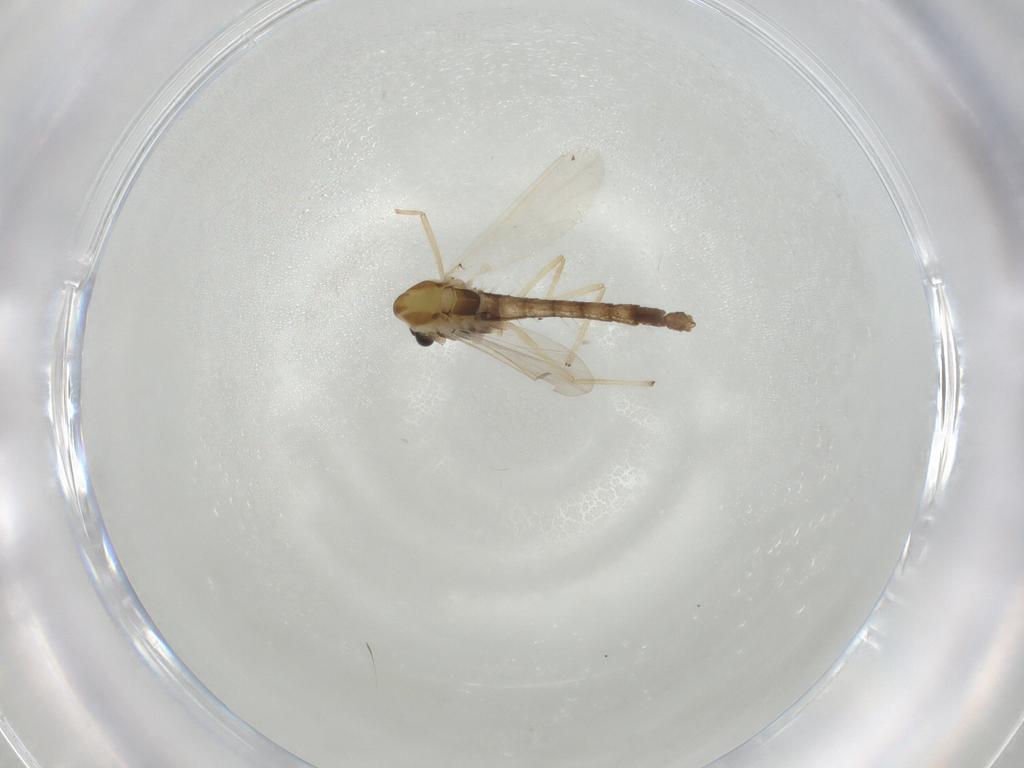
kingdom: Animalia
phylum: Arthropoda
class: Insecta
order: Diptera
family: Chironomidae
